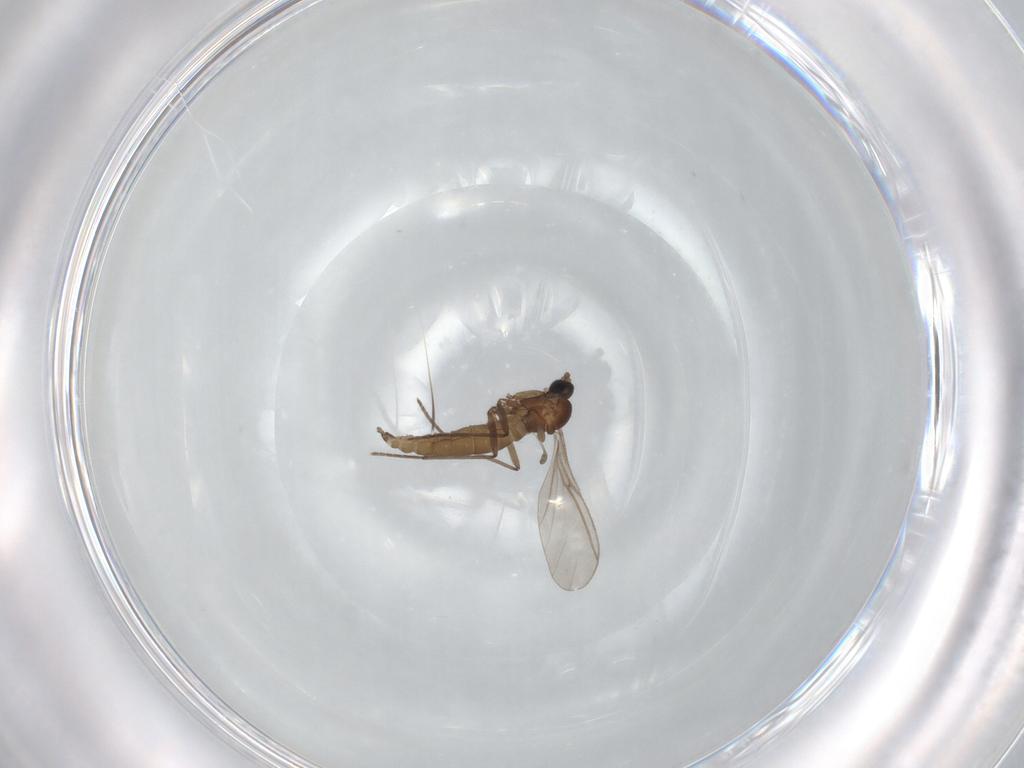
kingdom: Animalia
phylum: Arthropoda
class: Insecta
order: Diptera
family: Sciaridae
